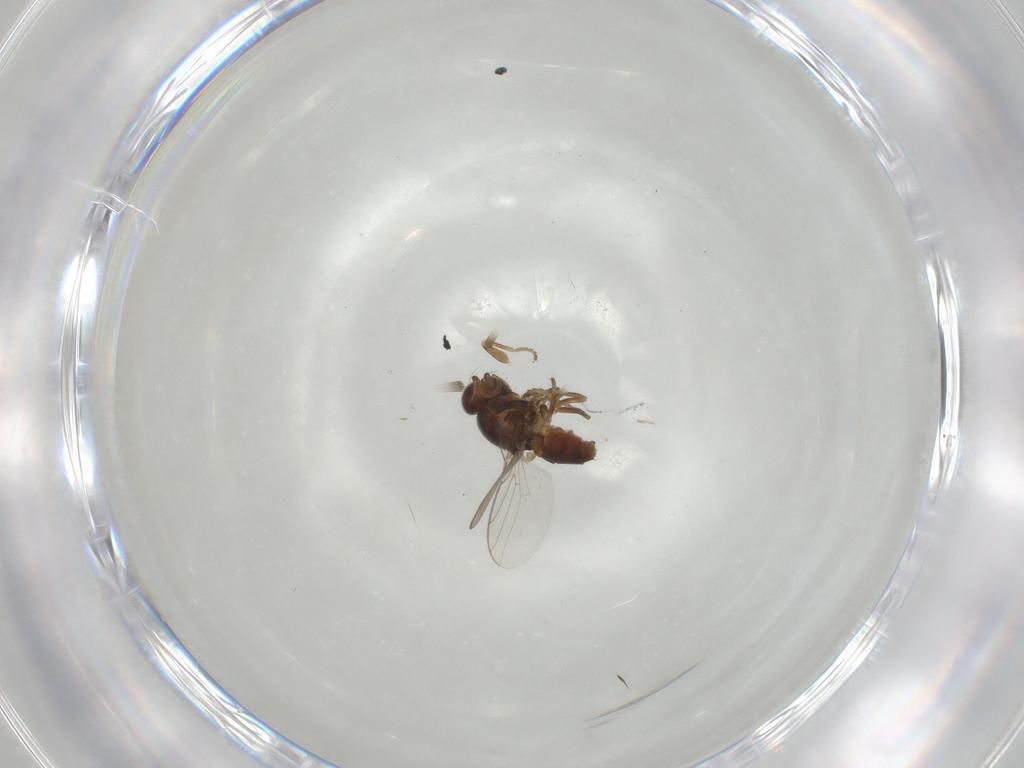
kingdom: Animalia
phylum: Arthropoda
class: Insecta
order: Diptera
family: Chloropidae
